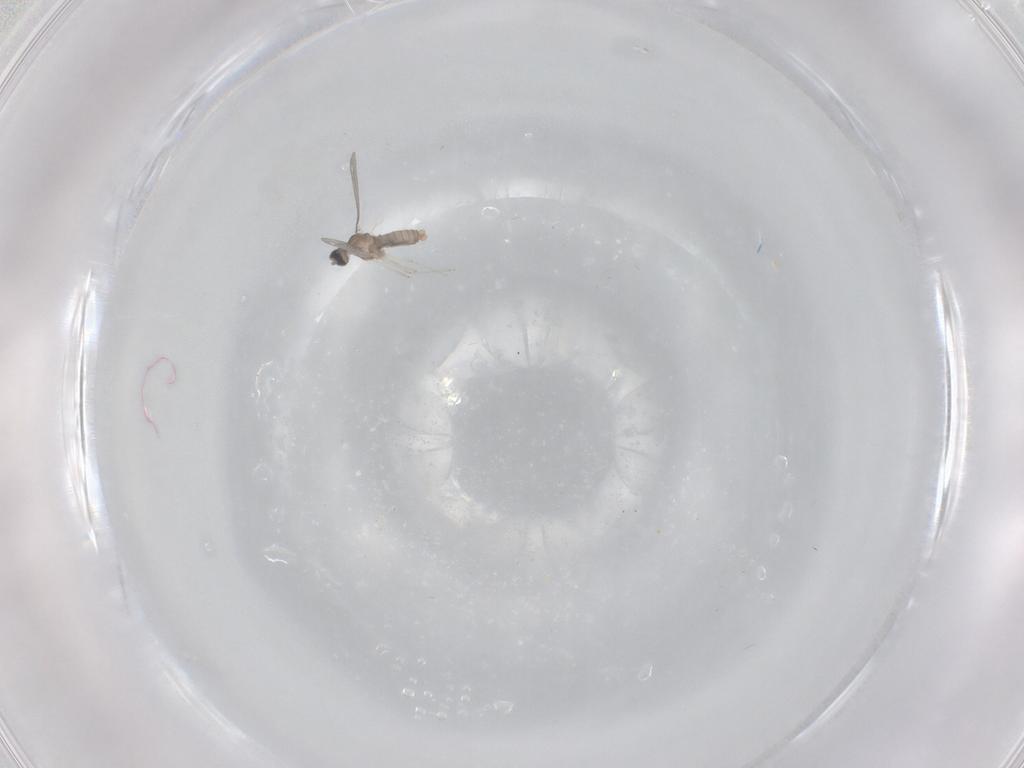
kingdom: Animalia
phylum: Arthropoda
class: Insecta
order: Diptera
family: Cecidomyiidae
